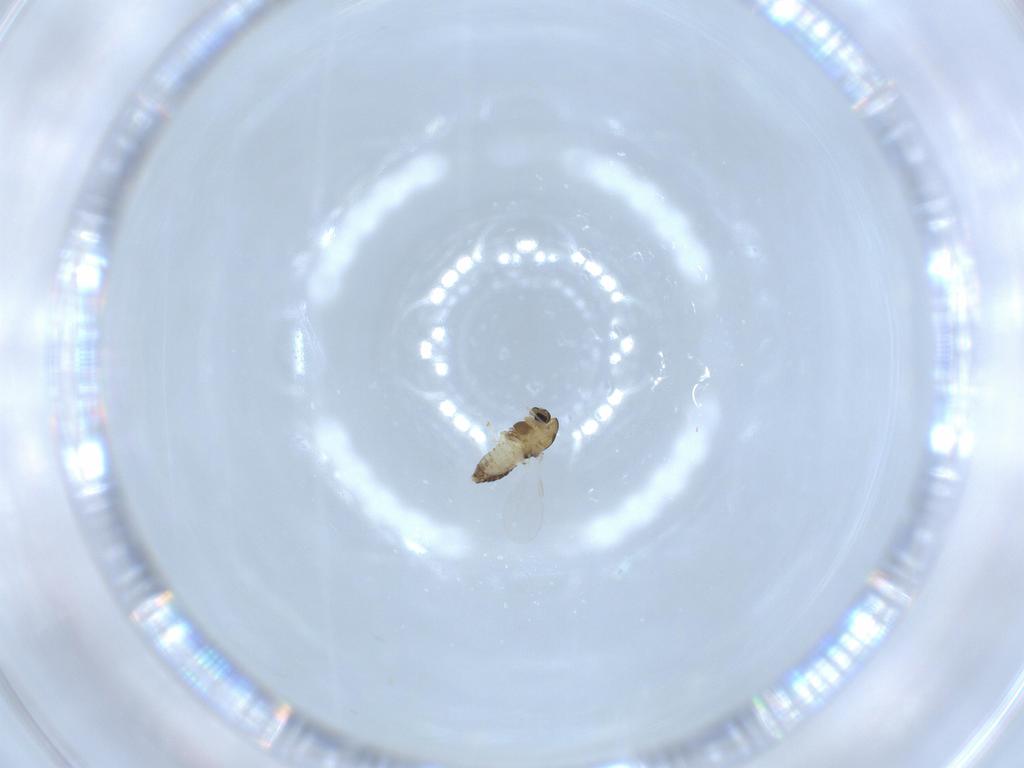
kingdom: Animalia
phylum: Arthropoda
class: Insecta
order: Diptera
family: Chironomidae
